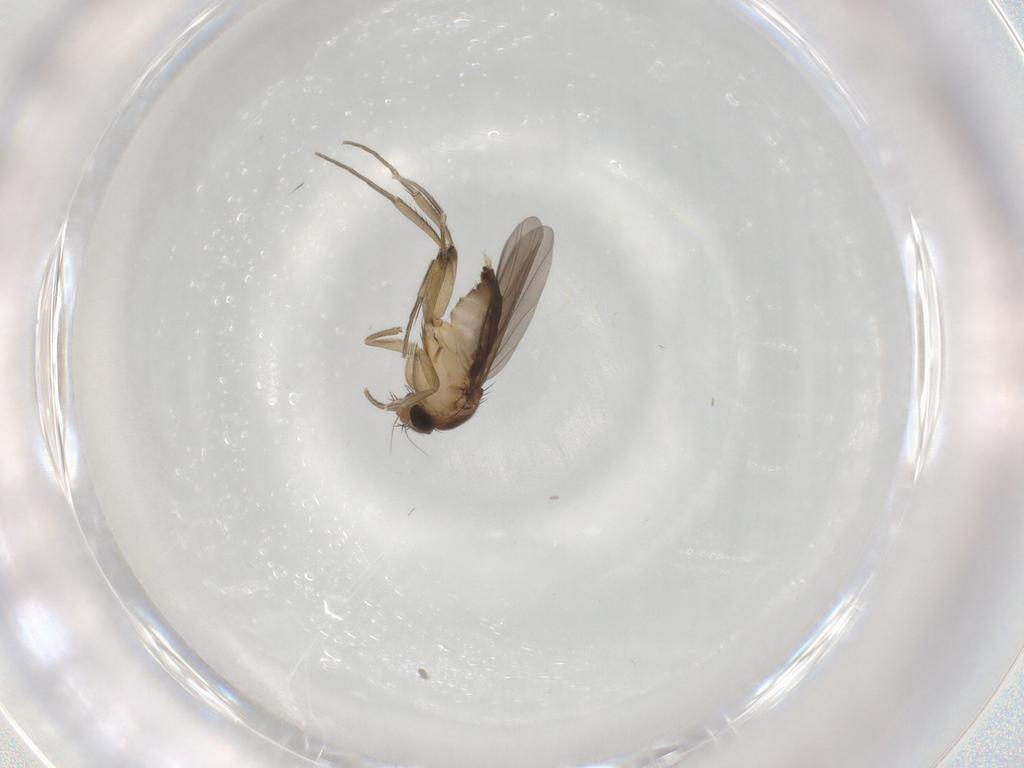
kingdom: Animalia
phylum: Arthropoda
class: Insecta
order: Diptera
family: Phoridae
